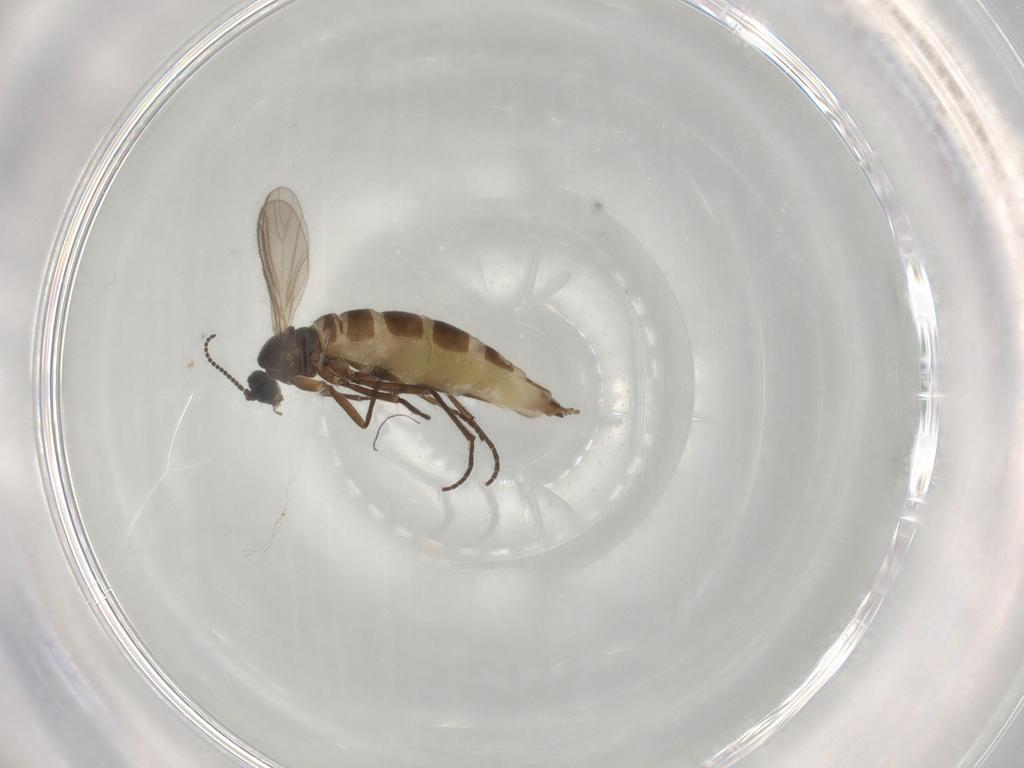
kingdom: Animalia
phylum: Arthropoda
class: Insecta
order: Diptera
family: Sciaridae
